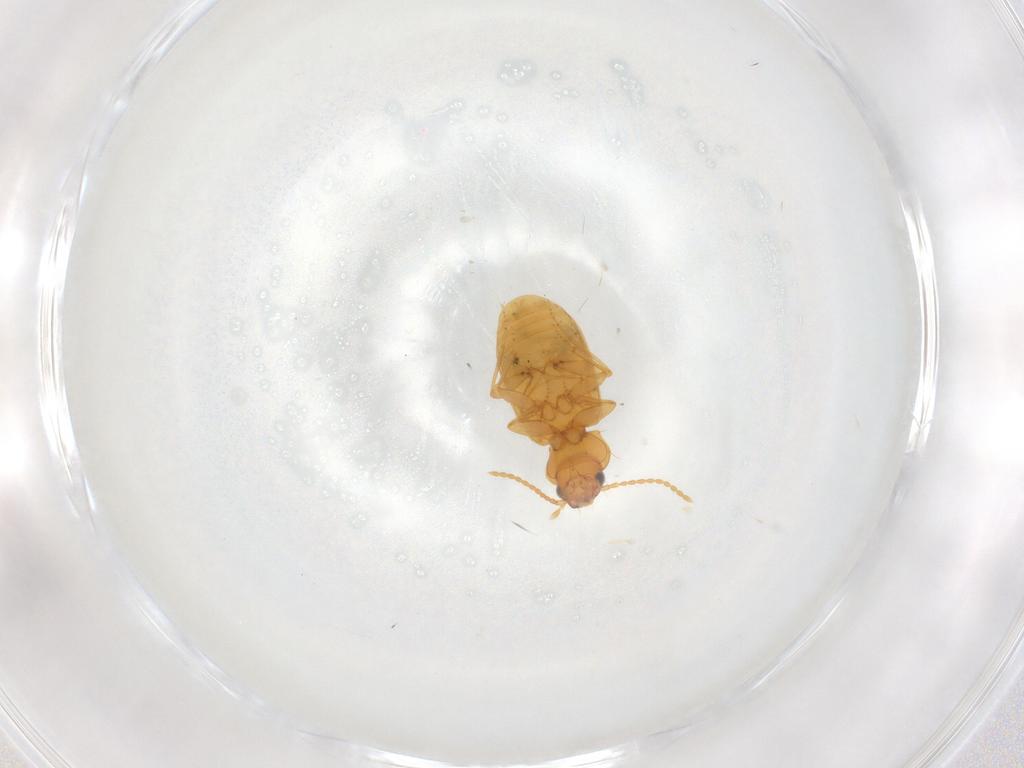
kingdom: Animalia
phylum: Arthropoda
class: Insecta
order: Coleoptera
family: Carabidae
